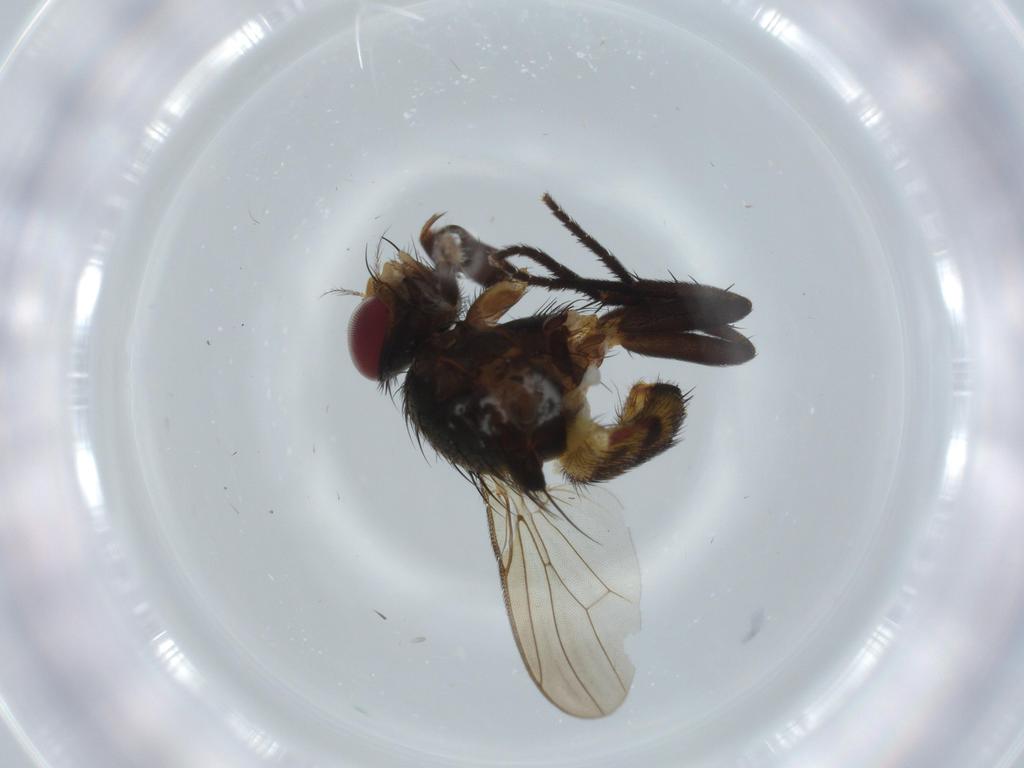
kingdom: Animalia
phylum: Arthropoda
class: Insecta
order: Diptera
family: Anthomyiidae
